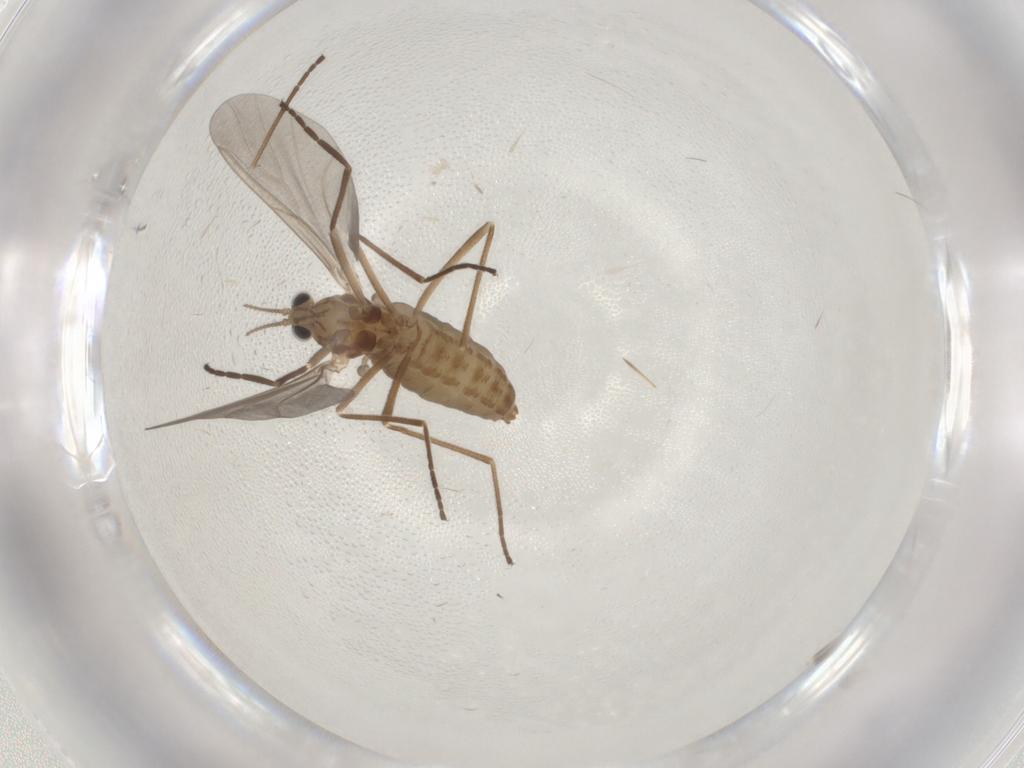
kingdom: Animalia
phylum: Arthropoda
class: Insecta
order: Diptera
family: Cecidomyiidae
